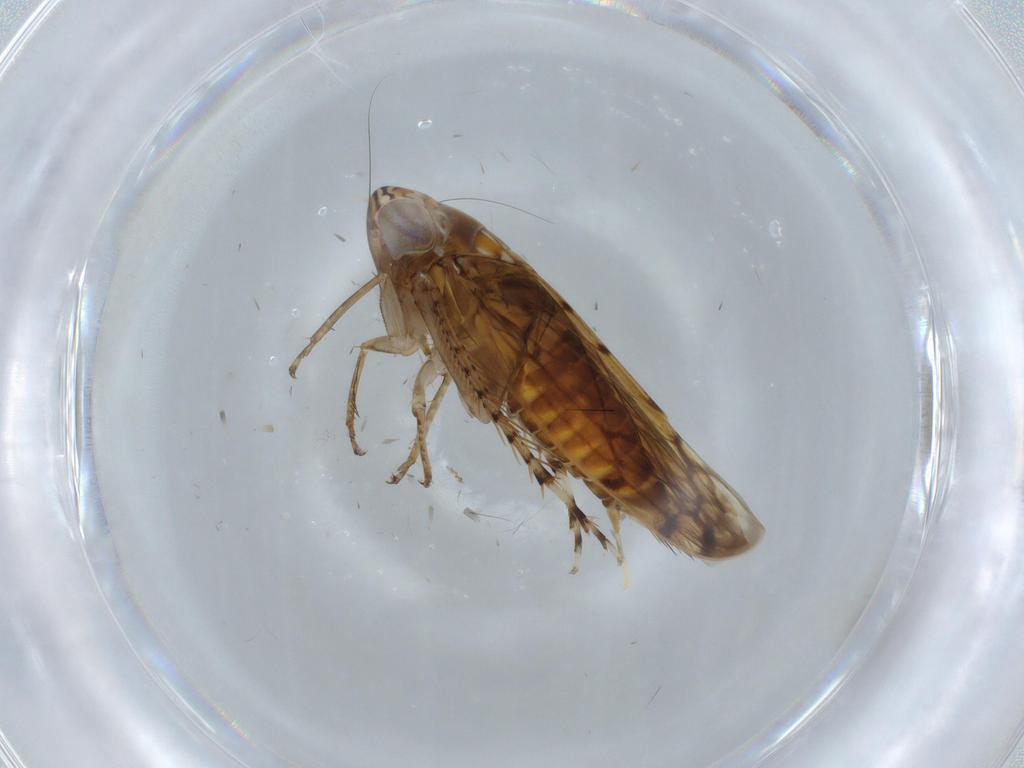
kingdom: Animalia
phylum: Arthropoda
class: Insecta
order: Hemiptera
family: Cicadellidae
